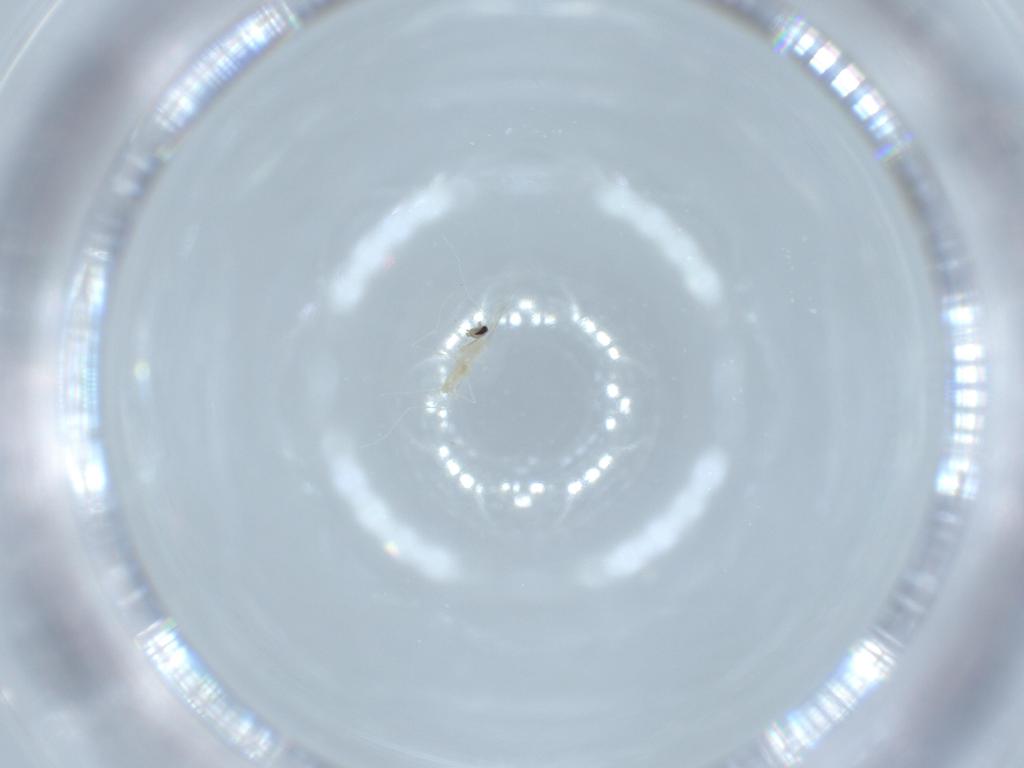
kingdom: Animalia
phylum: Arthropoda
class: Insecta
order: Diptera
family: Cecidomyiidae
